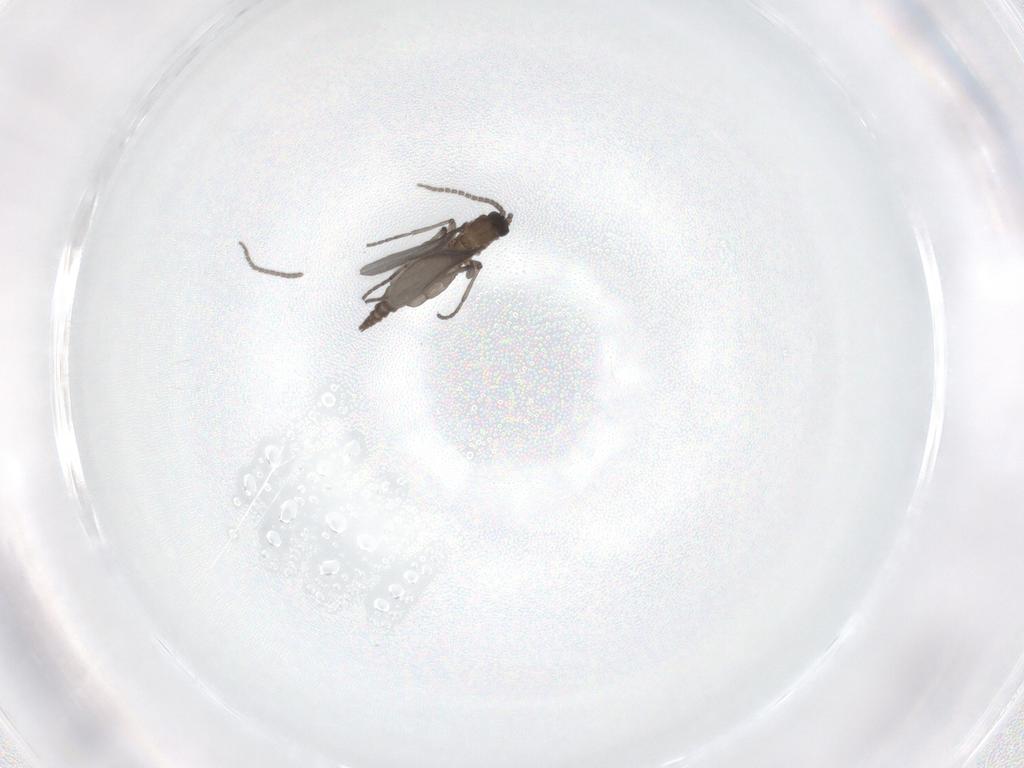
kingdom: Animalia
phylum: Arthropoda
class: Insecta
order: Diptera
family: Sciaridae
